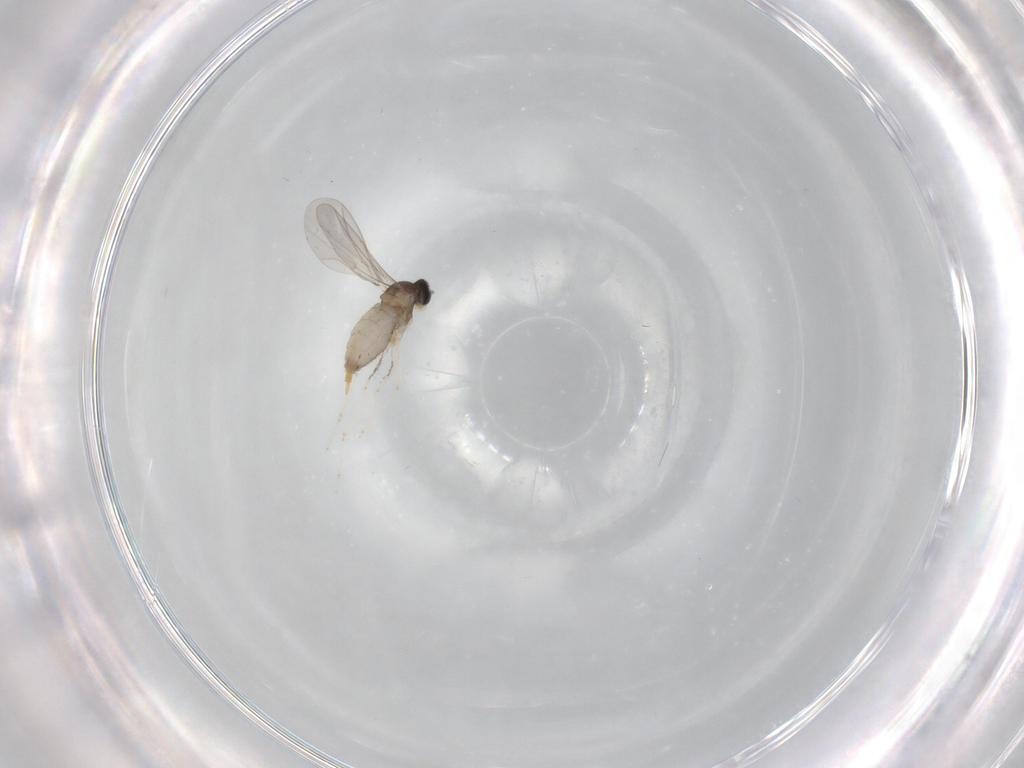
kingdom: Animalia
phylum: Arthropoda
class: Insecta
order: Diptera
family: Cecidomyiidae
